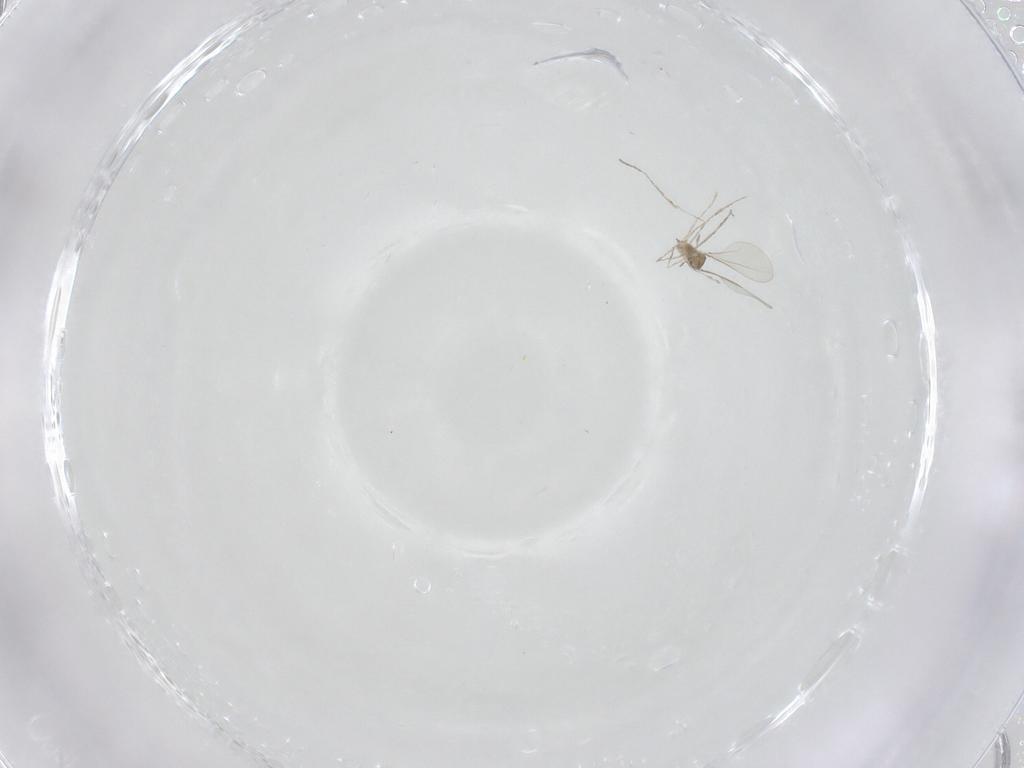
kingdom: Animalia
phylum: Arthropoda
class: Insecta
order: Diptera
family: Cecidomyiidae
